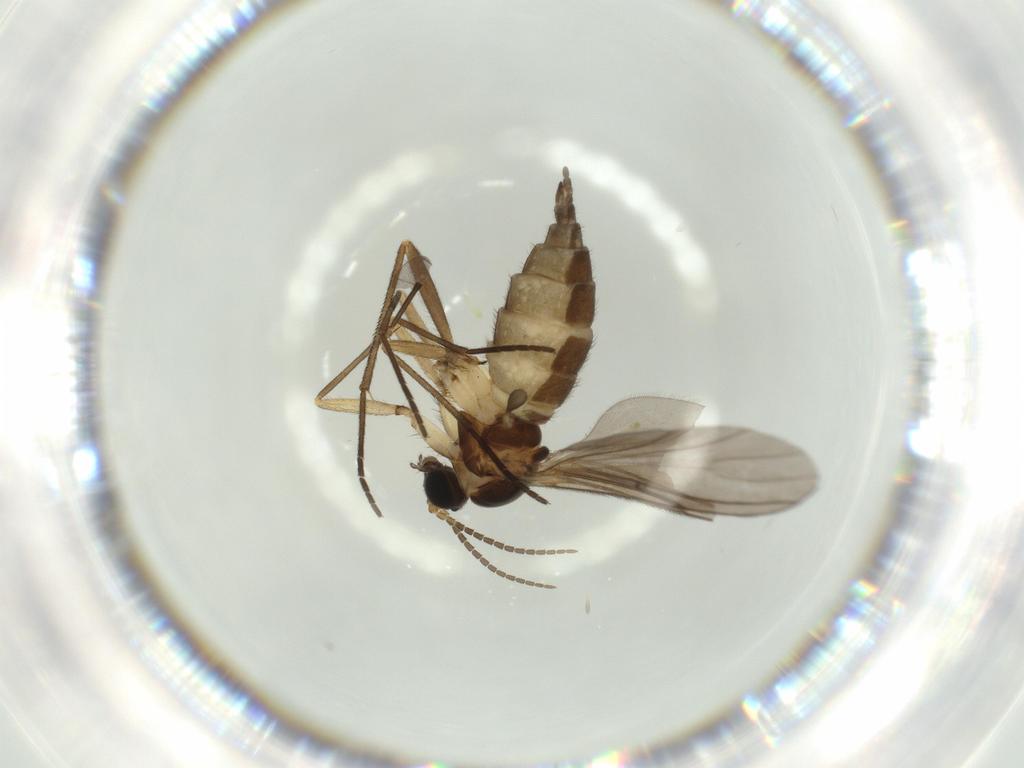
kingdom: Animalia
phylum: Arthropoda
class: Insecta
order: Diptera
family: Sciaridae
